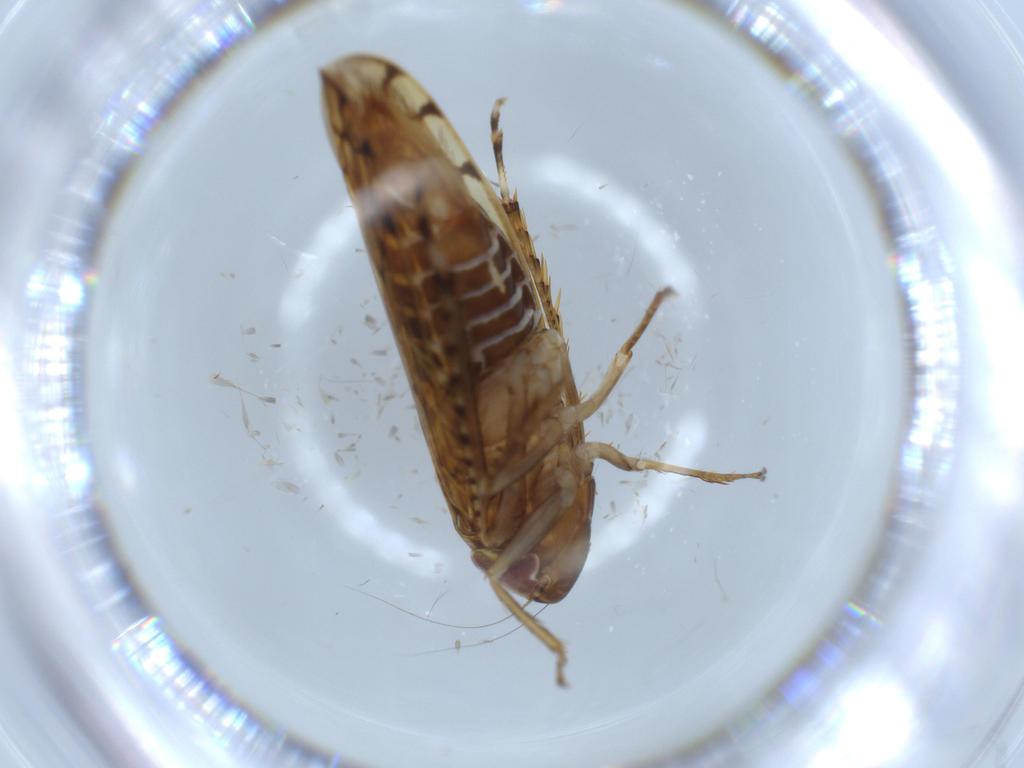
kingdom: Animalia
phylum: Arthropoda
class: Insecta
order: Hemiptera
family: Cicadellidae
